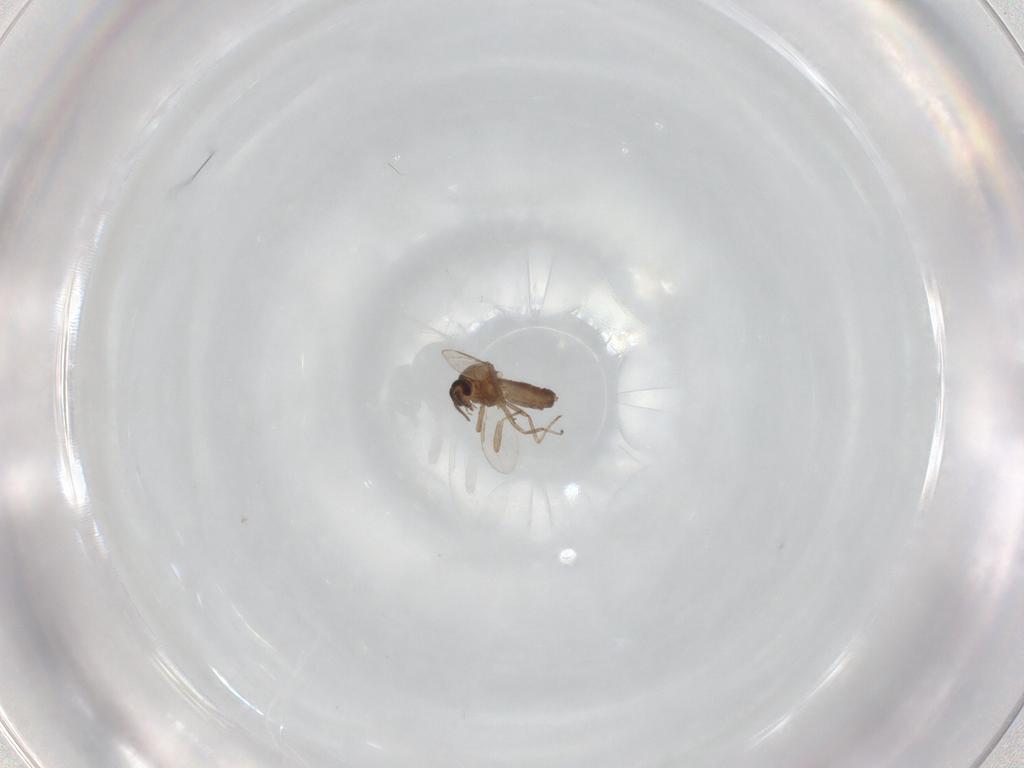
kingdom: Animalia
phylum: Arthropoda
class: Insecta
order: Diptera
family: Ceratopogonidae
